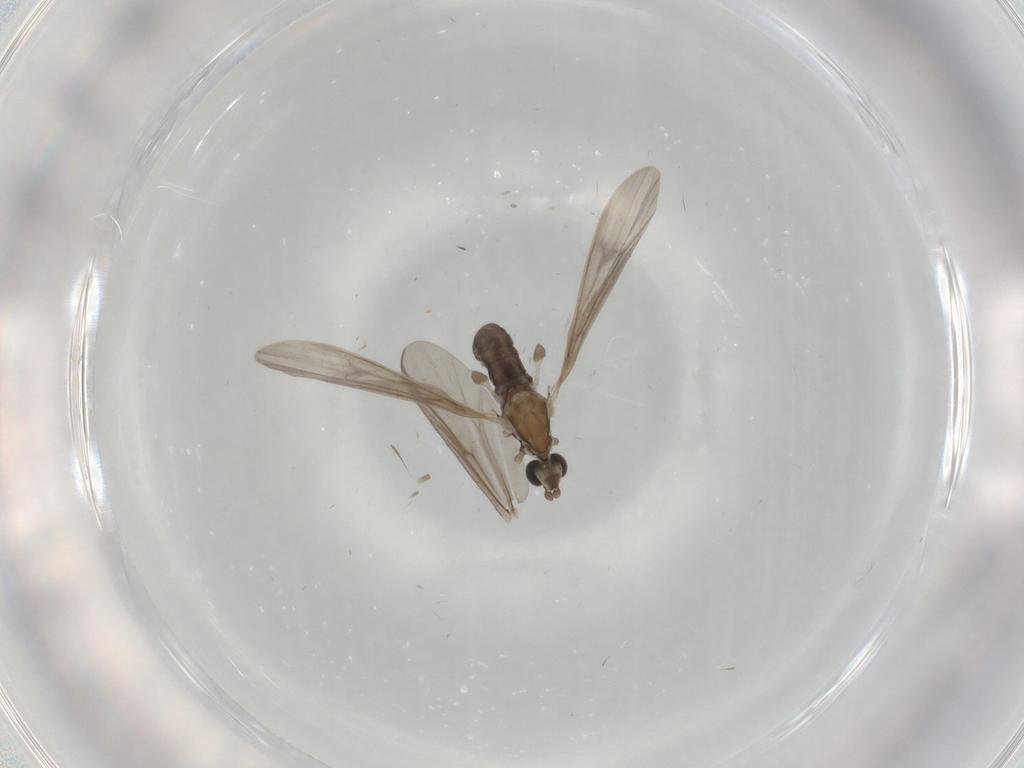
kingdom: Animalia
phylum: Arthropoda
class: Insecta
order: Diptera
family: Limoniidae
